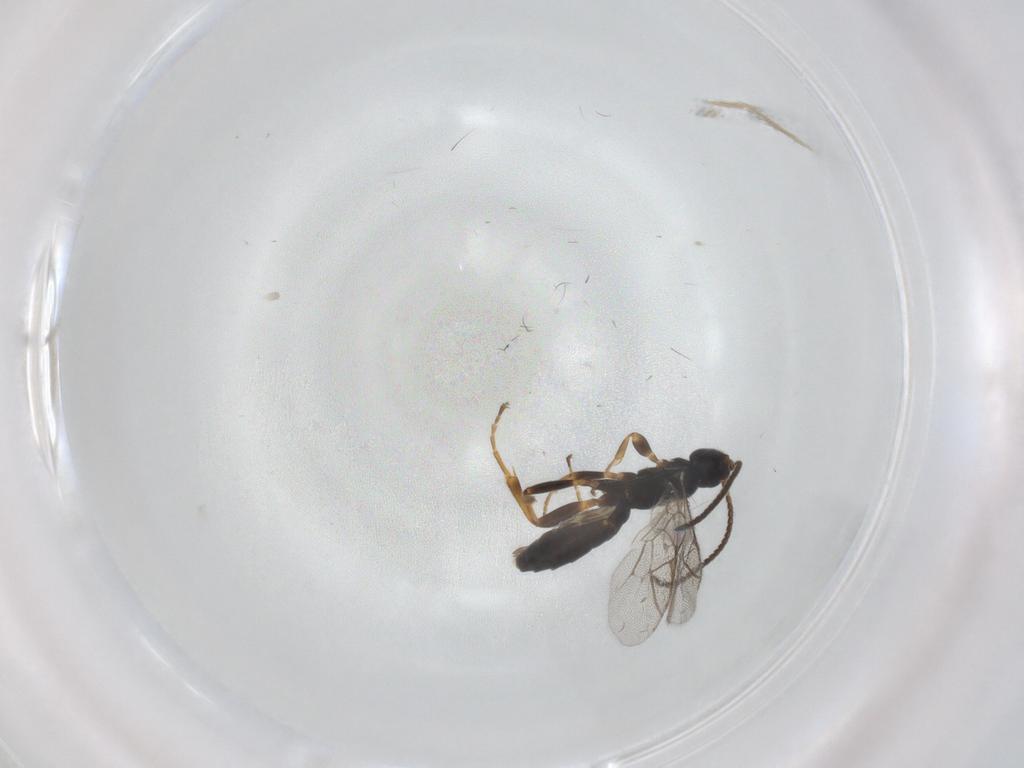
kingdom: Animalia
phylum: Arthropoda
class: Insecta
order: Hymenoptera
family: Ichneumonidae
